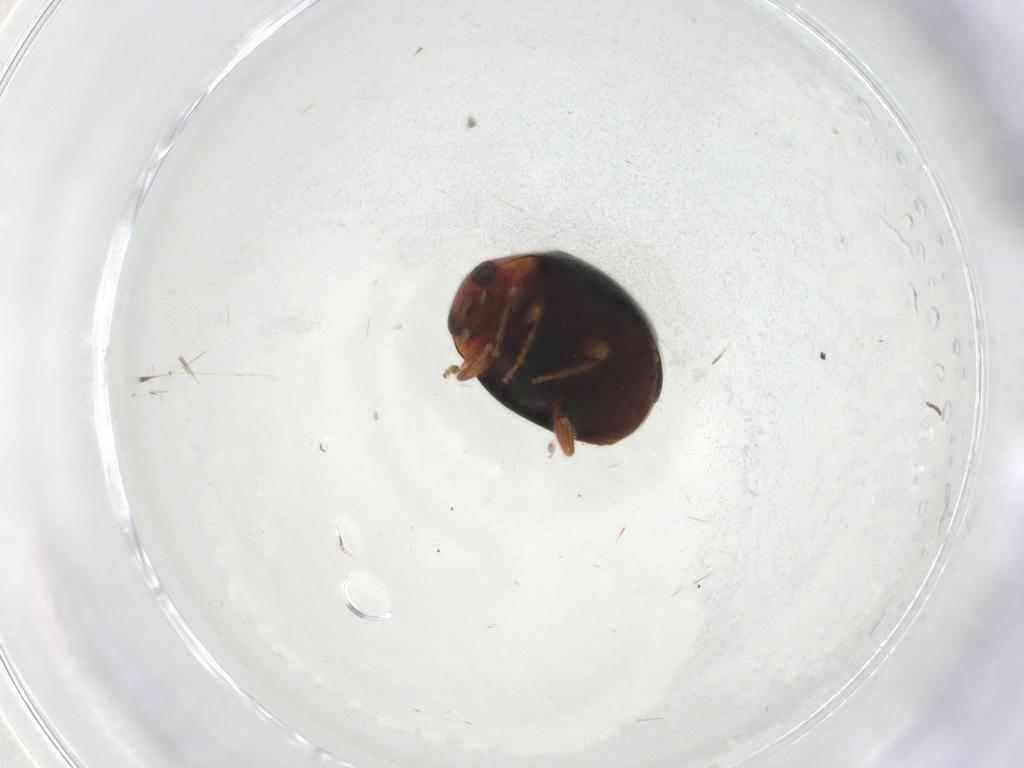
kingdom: Animalia
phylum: Arthropoda
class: Insecta
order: Coleoptera
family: Coccinellidae
